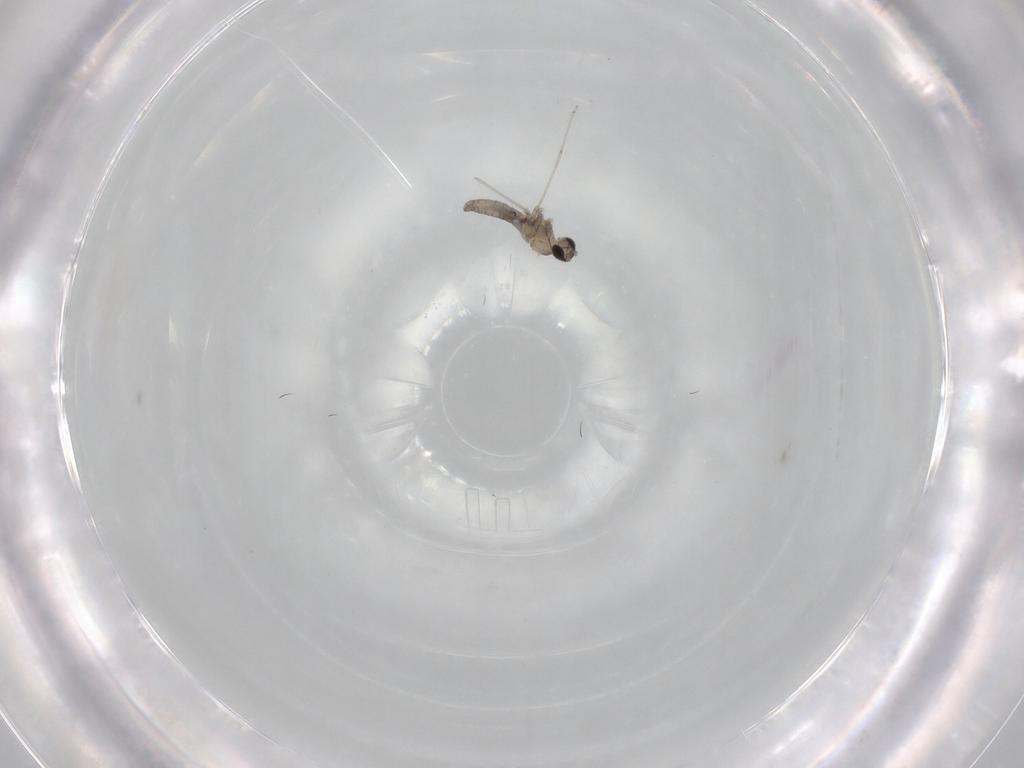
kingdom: Animalia
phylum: Arthropoda
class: Insecta
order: Diptera
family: Cecidomyiidae
